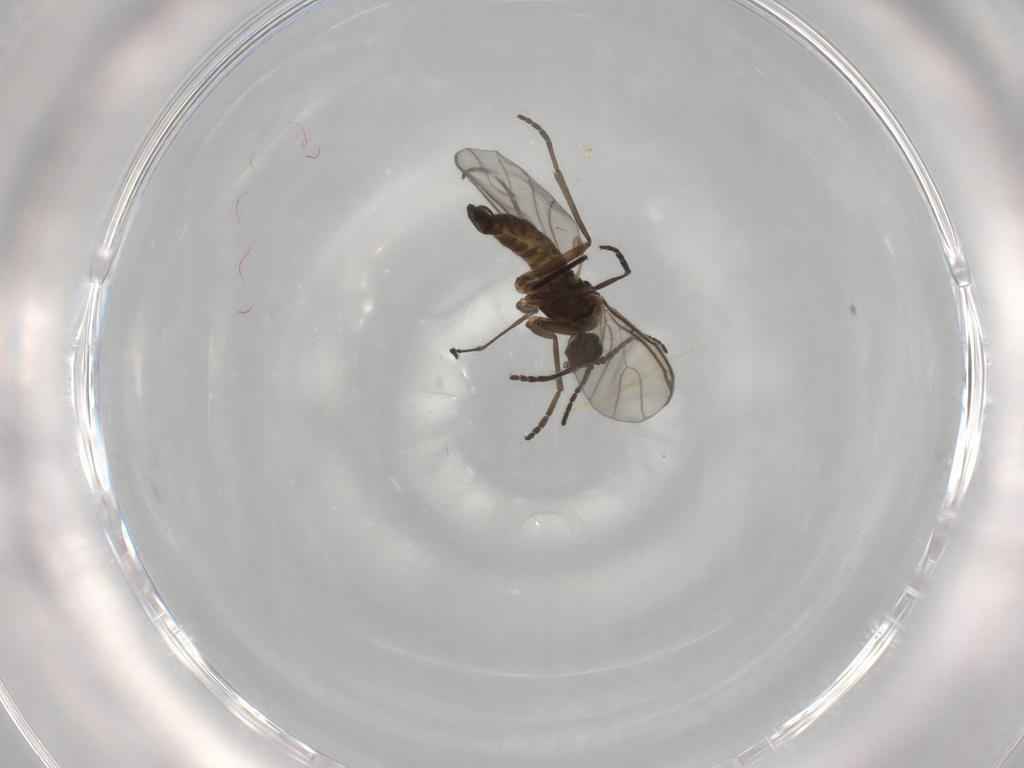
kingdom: Animalia
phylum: Arthropoda
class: Insecta
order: Diptera
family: Sciaridae
